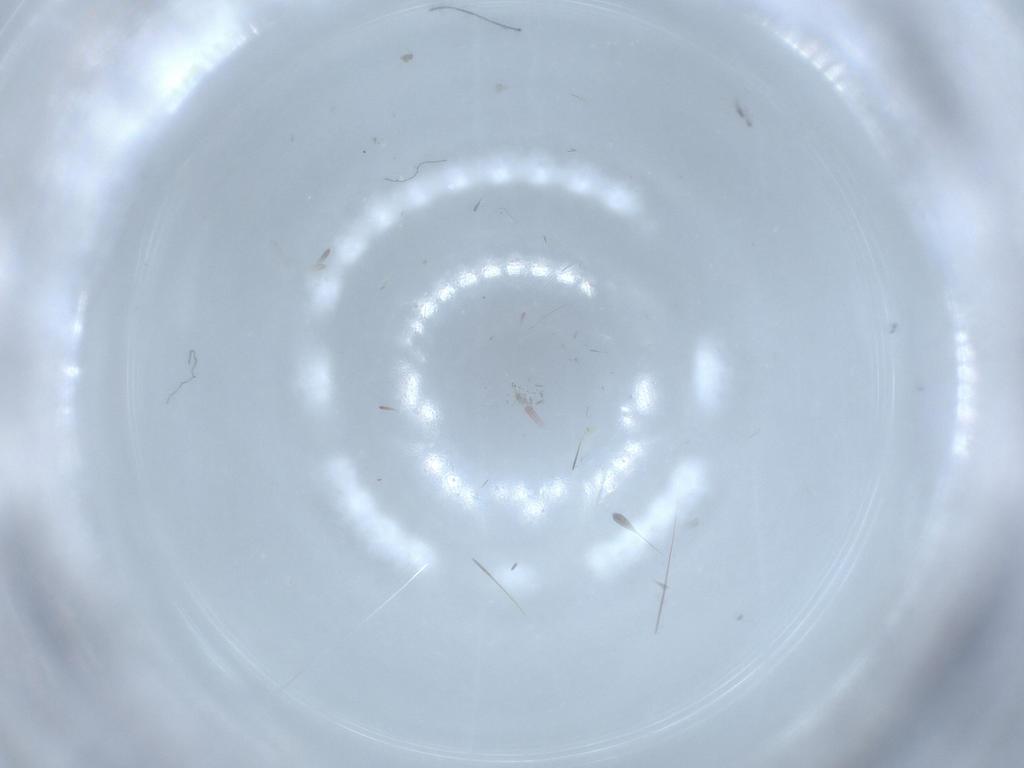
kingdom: Animalia
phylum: Arthropoda
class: Insecta
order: Diptera
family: Phoridae
